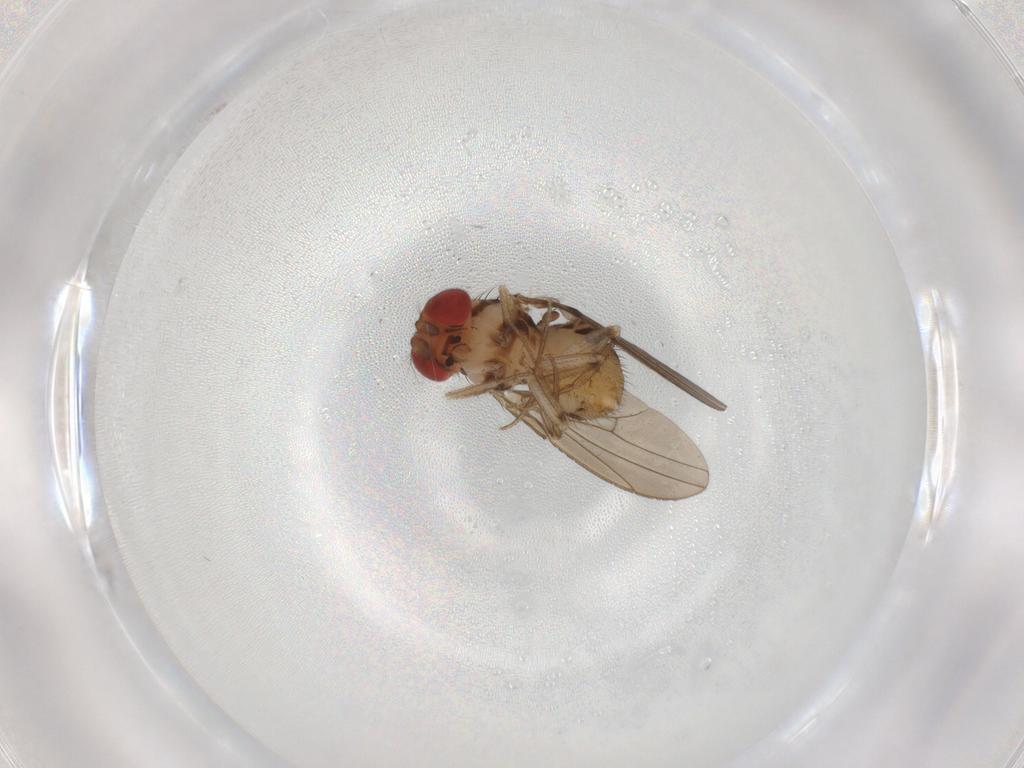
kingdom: Animalia
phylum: Arthropoda
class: Insecta
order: Diptera
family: Drosophilidae
